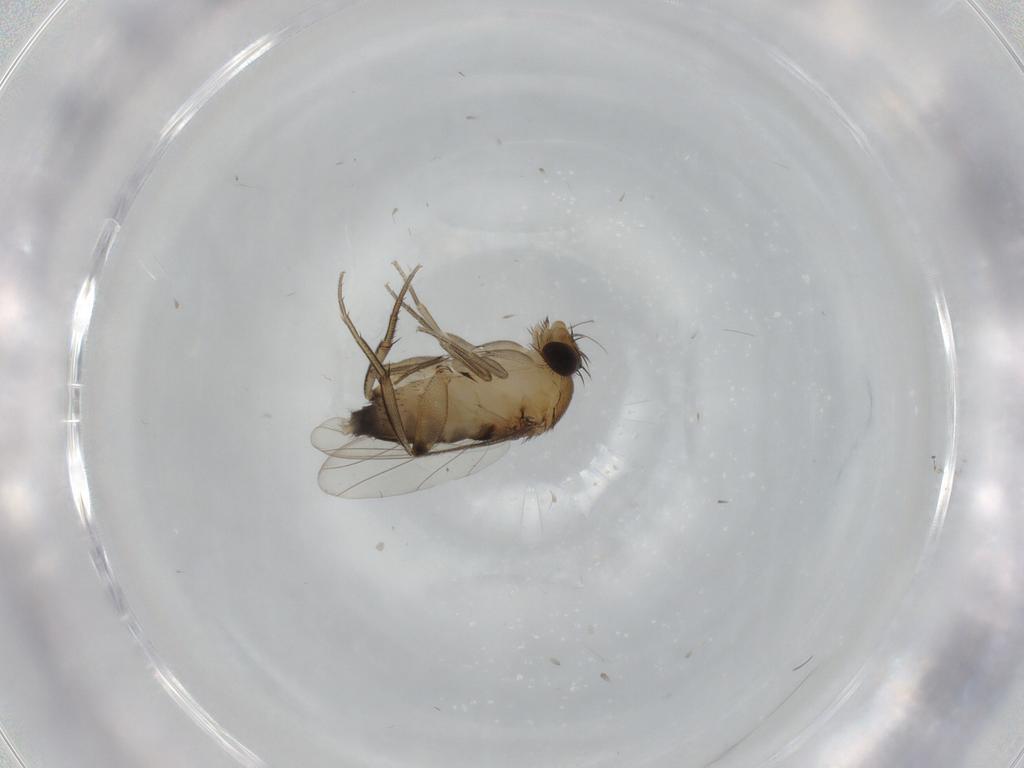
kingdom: Animalia
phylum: Arthropoda
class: Insecta
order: Diptera
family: Phoridae
